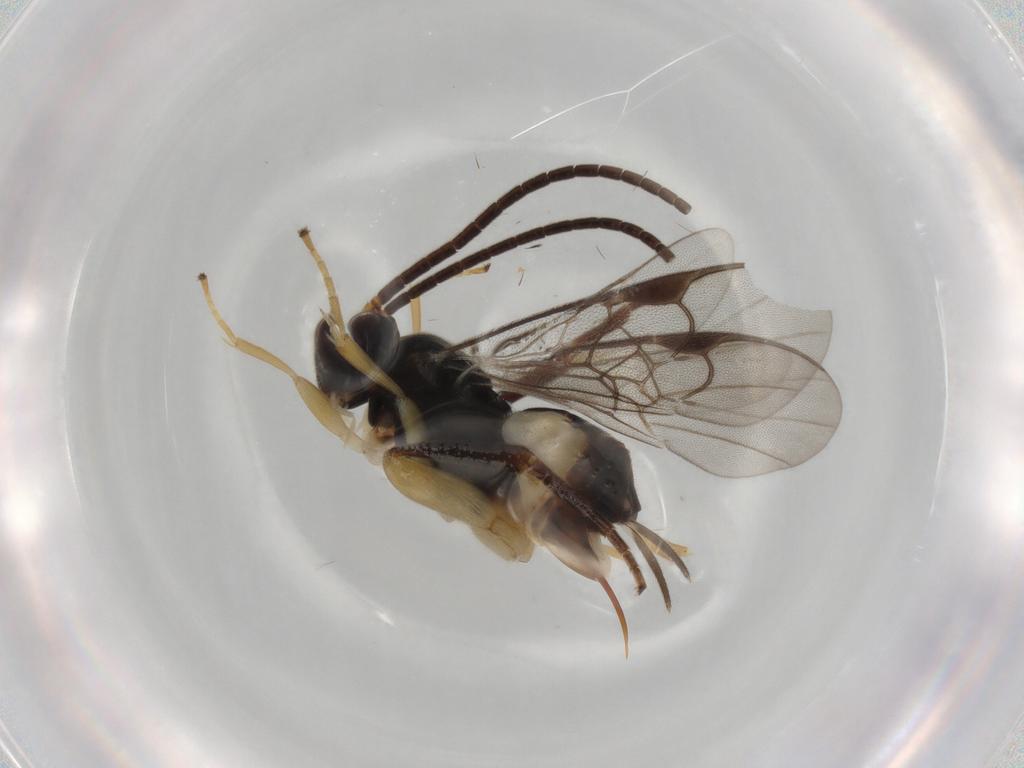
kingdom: Animalia
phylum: Arthropoda
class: Insecta
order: Hymenoptera
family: Braconidae
